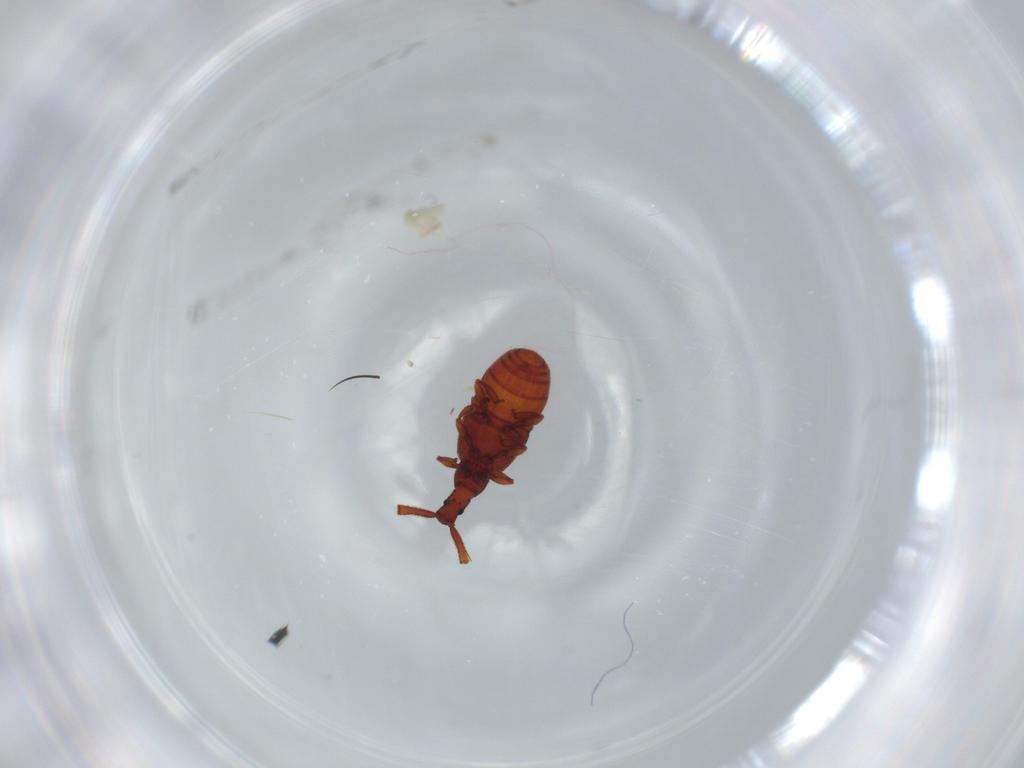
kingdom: Animalia
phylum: Arthropoda
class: Insecta
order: Coleoptera
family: Staphylinidae
